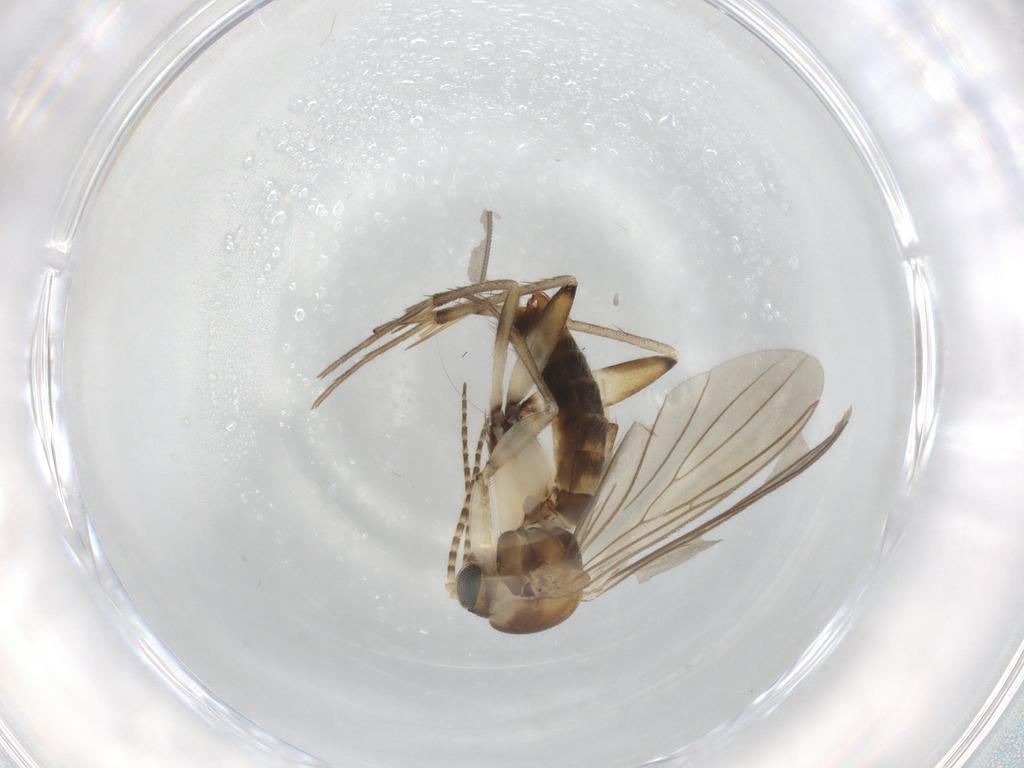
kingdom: Animalia
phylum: Arthropoda
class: Insecta
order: Diptera
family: Mycetophilidae
